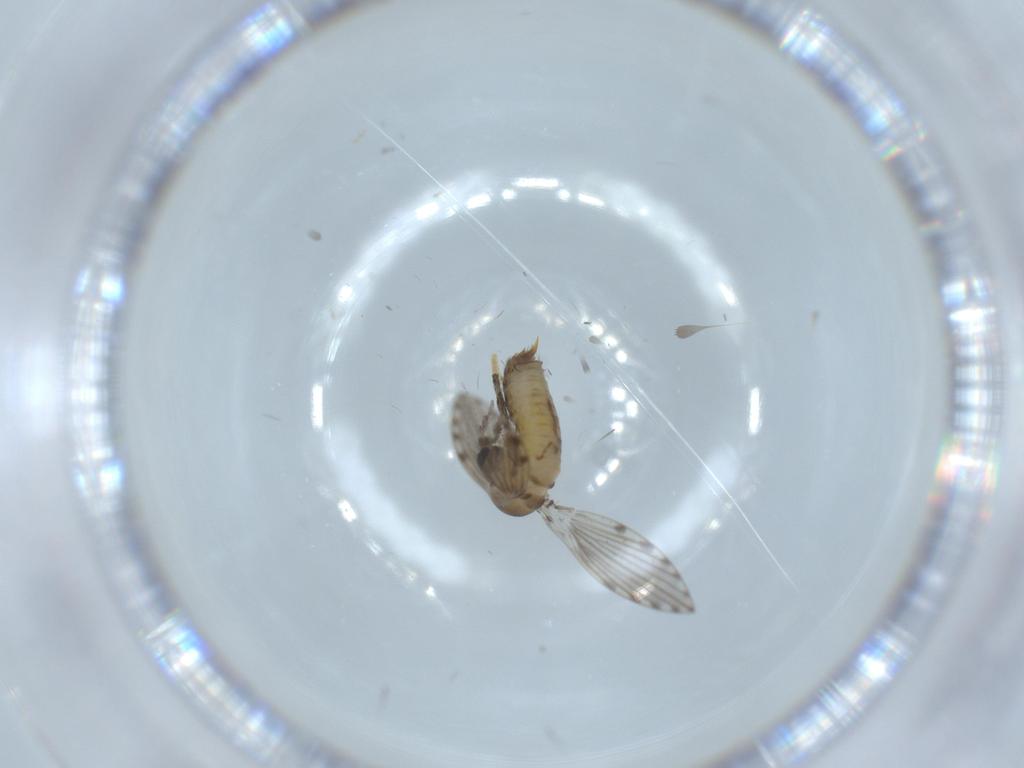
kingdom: Animalia
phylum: Arthropoda
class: Insecta
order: Diptera
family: Psychodidae
